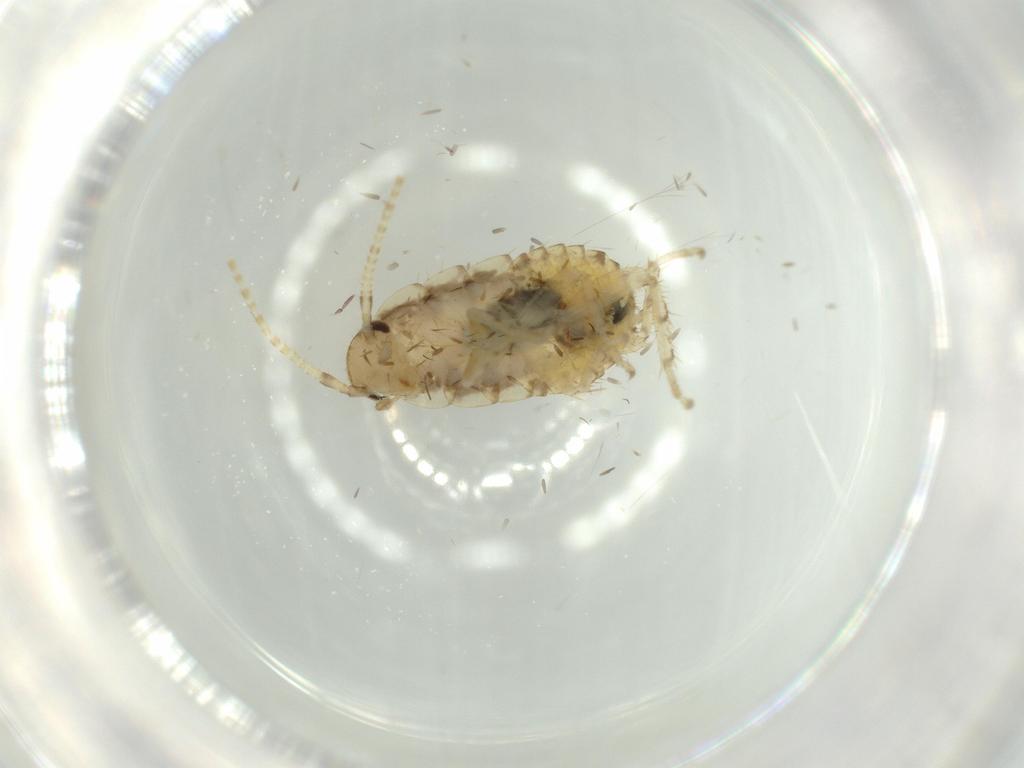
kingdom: Animalia
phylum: Arthropoda
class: Insecta
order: Blattodea
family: Ectobiidae
